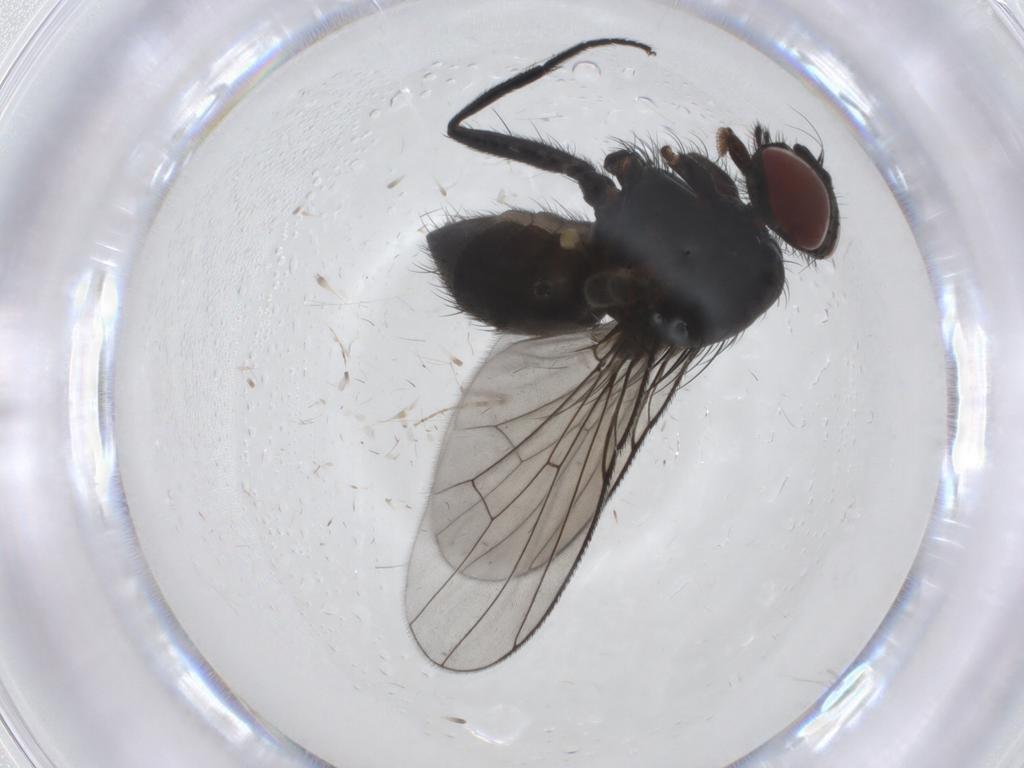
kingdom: Animalia
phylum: Arthropoda
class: Insecta
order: Diptera
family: Muscidae
